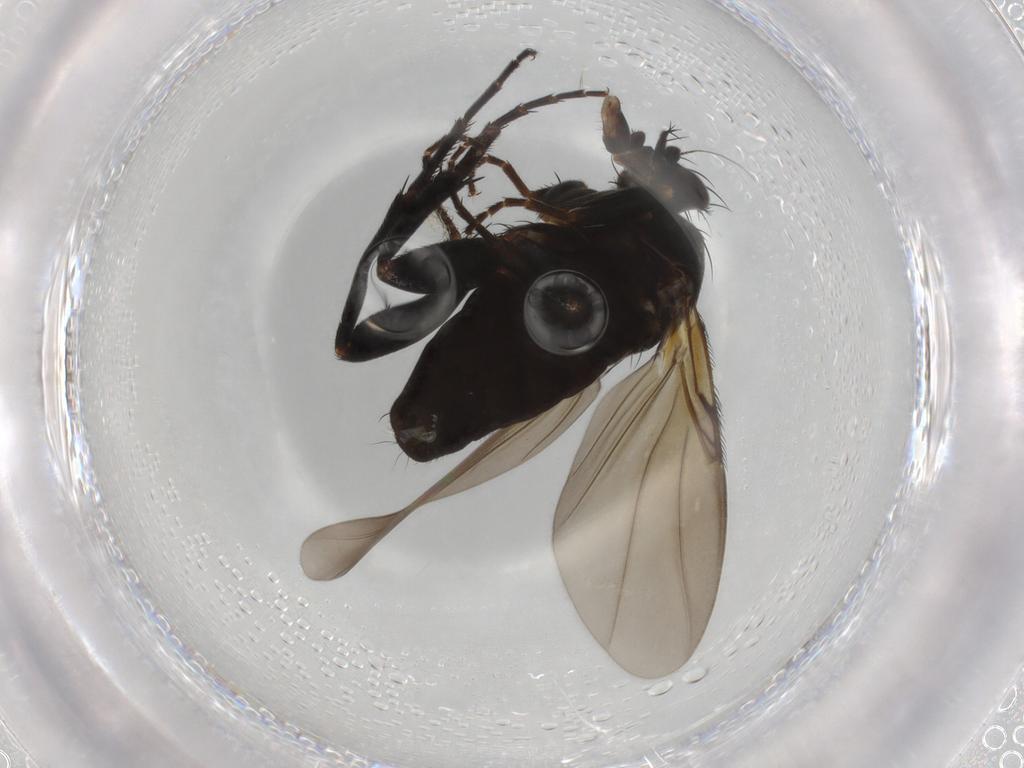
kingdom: Animalia
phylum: Arthropoda
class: Insecta
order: Diptera
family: Phoridae
